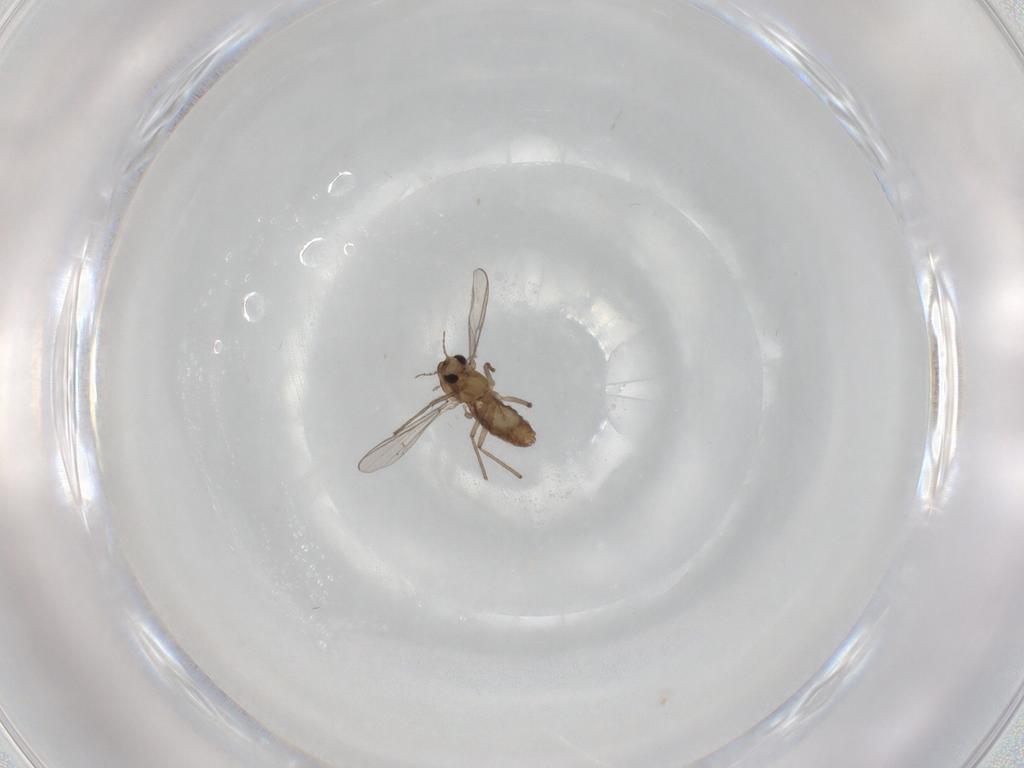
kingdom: Animalia
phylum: Arthropoda
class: Insecta
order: Diptera
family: Chironomidae
